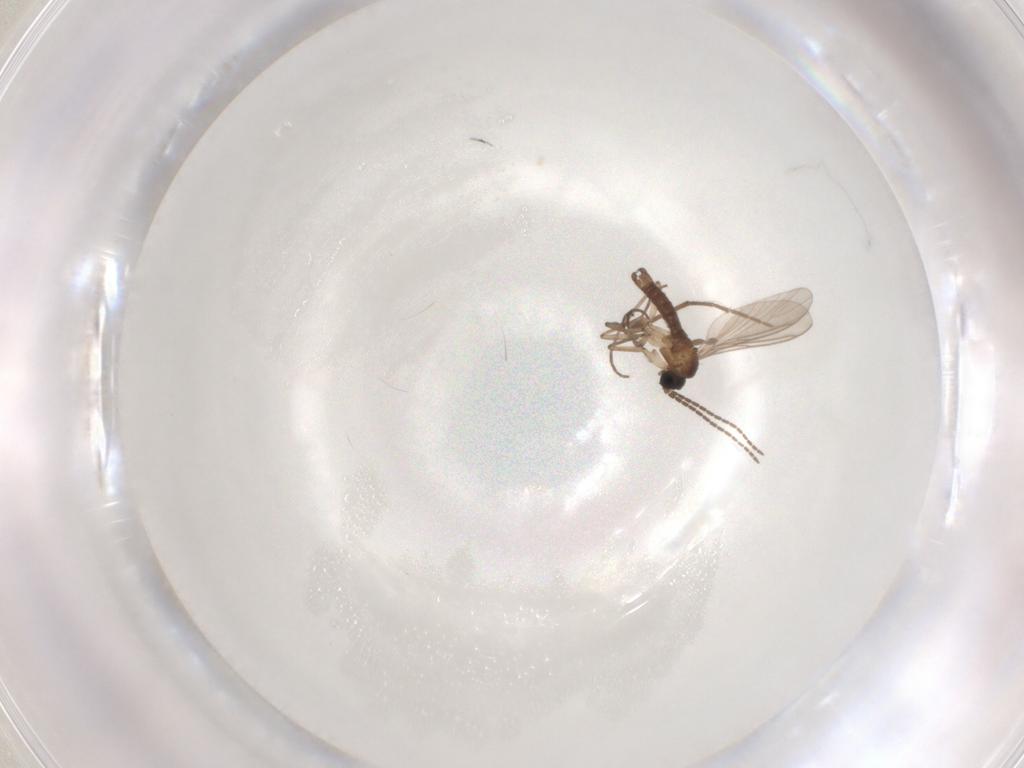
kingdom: Animalia
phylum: Arthropoda
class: Insecta
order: Diptera
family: Sciaridae
